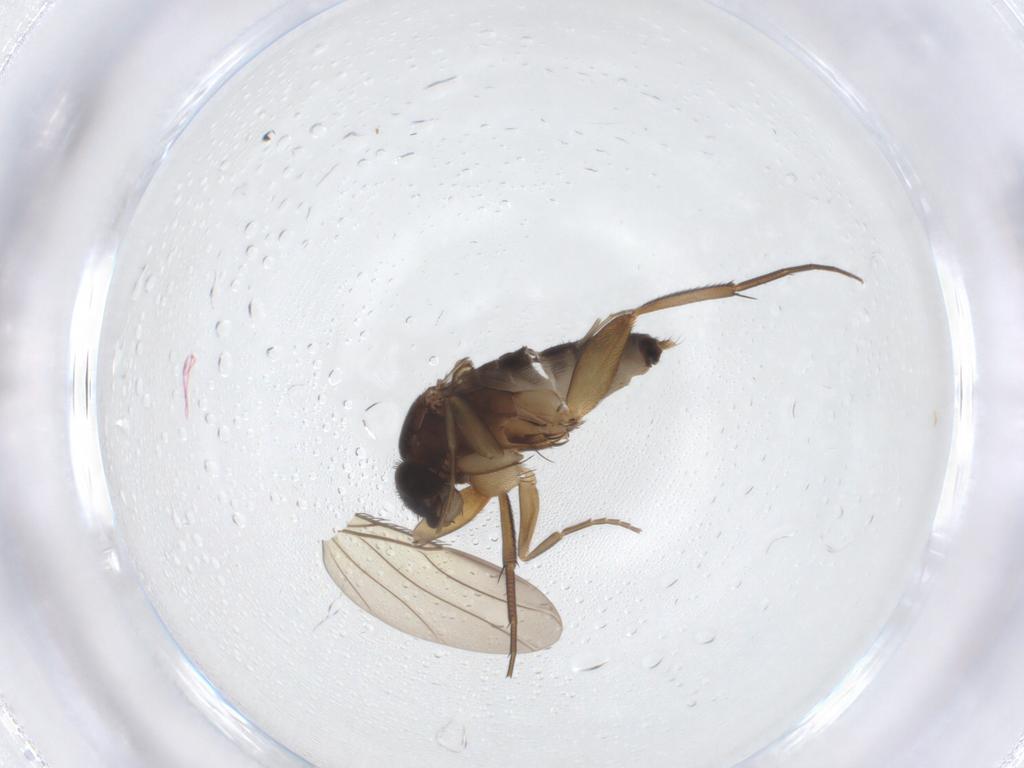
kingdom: Animalia
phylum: Arthropoda
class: Insecta
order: Diptera
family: Phoridae
